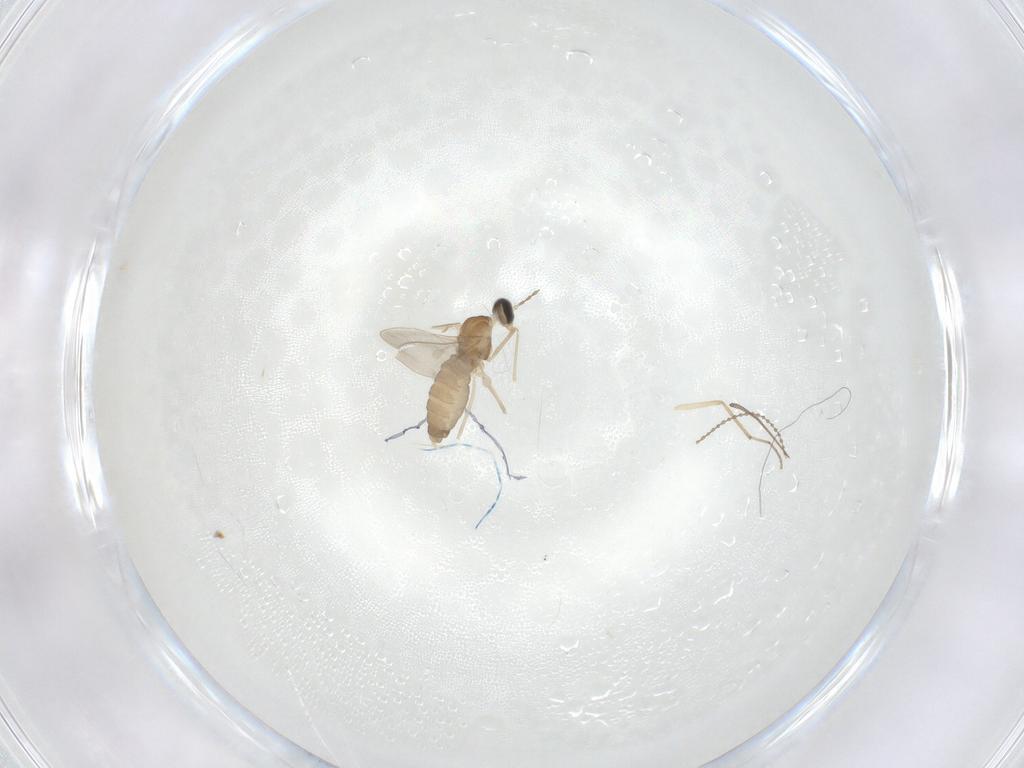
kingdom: Animalia
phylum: Arthropoda
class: Insecta
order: Diptera
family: Cecidomyiidae
